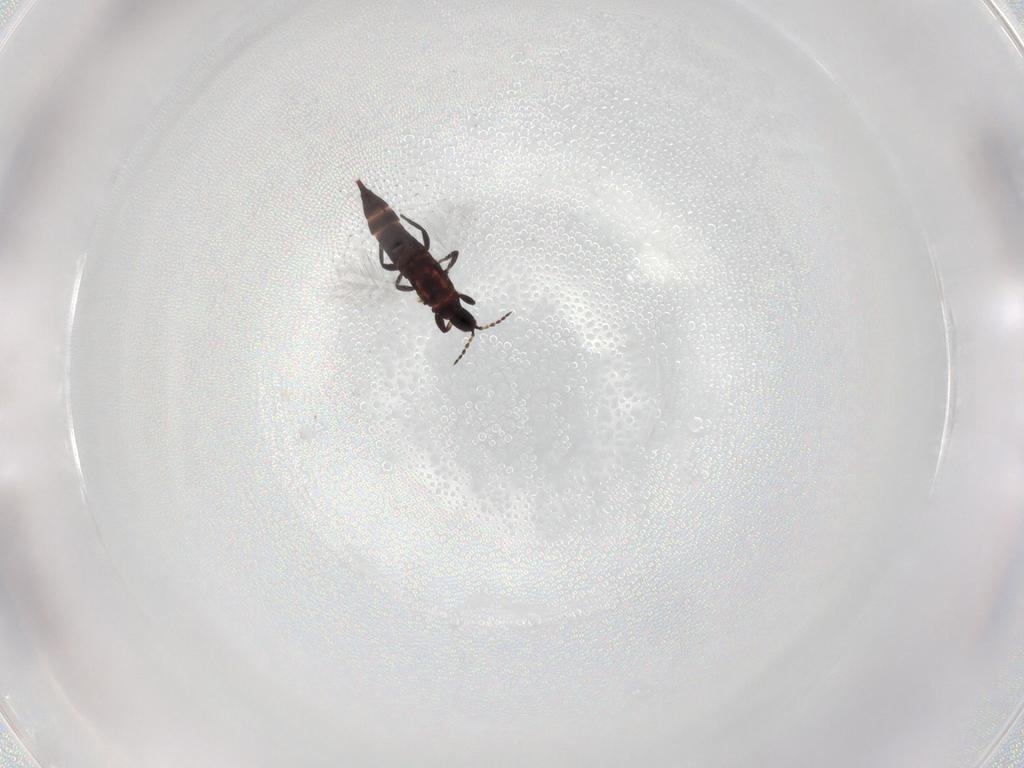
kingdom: Animalia
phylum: Arthropoda
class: Insecta
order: Thysanoptera
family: Phlaeothripidae
